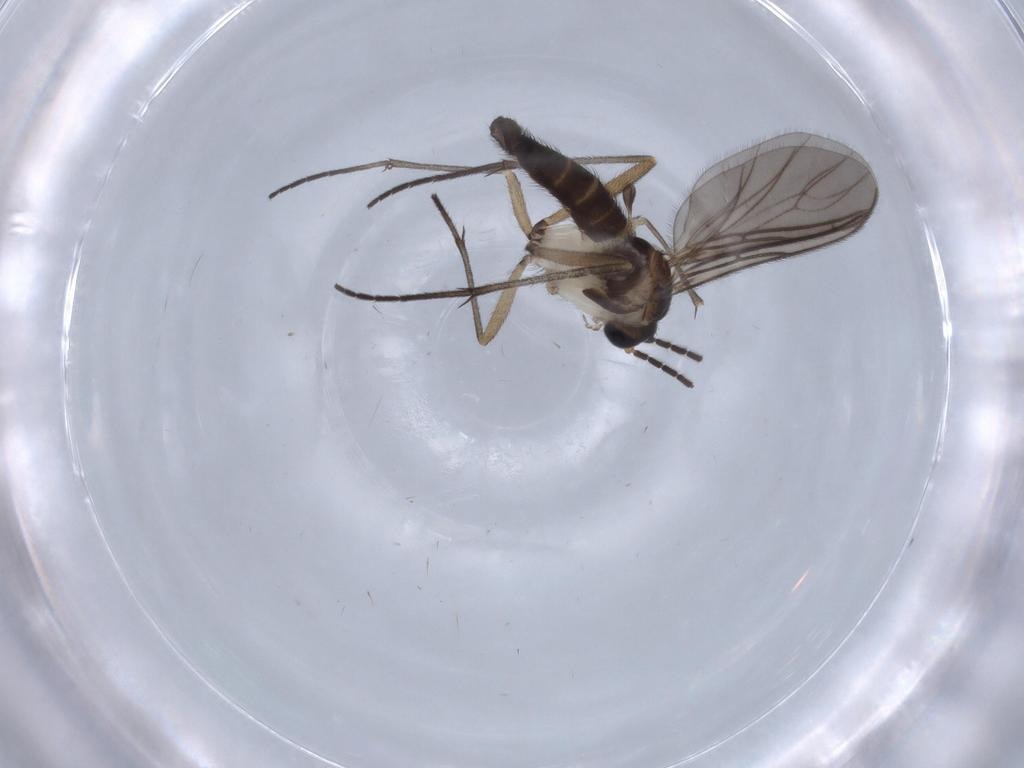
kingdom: Animalia
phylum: Arthropoda
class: Insecta
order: Diptera
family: Sciaridae
